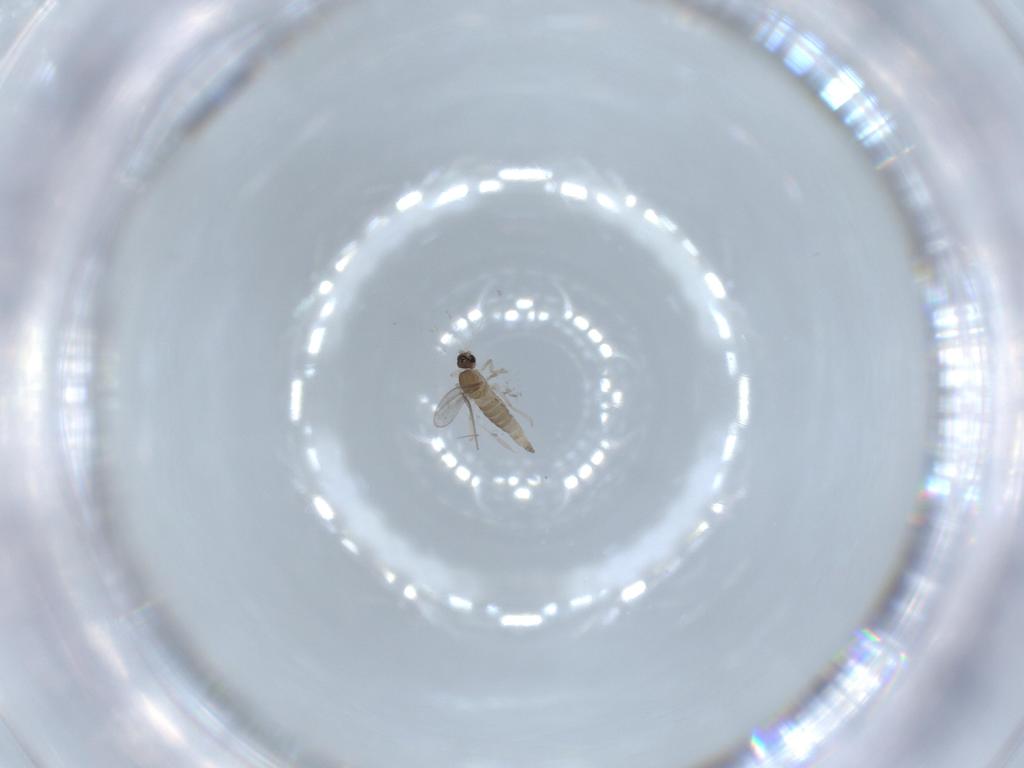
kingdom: Animalia
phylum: Arthropoda
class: Insecta
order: Diptera
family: Cecidomyiidae
